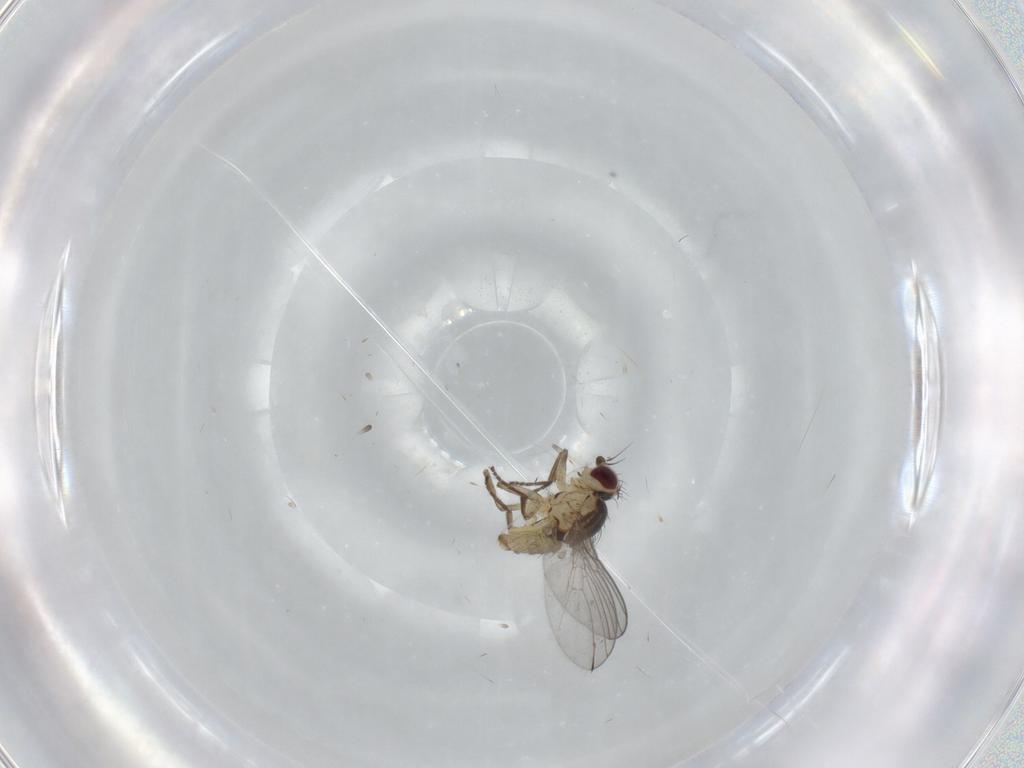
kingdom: Animalia
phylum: Arthropoda
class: Insecta
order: Diptera
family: Agromyzidae
